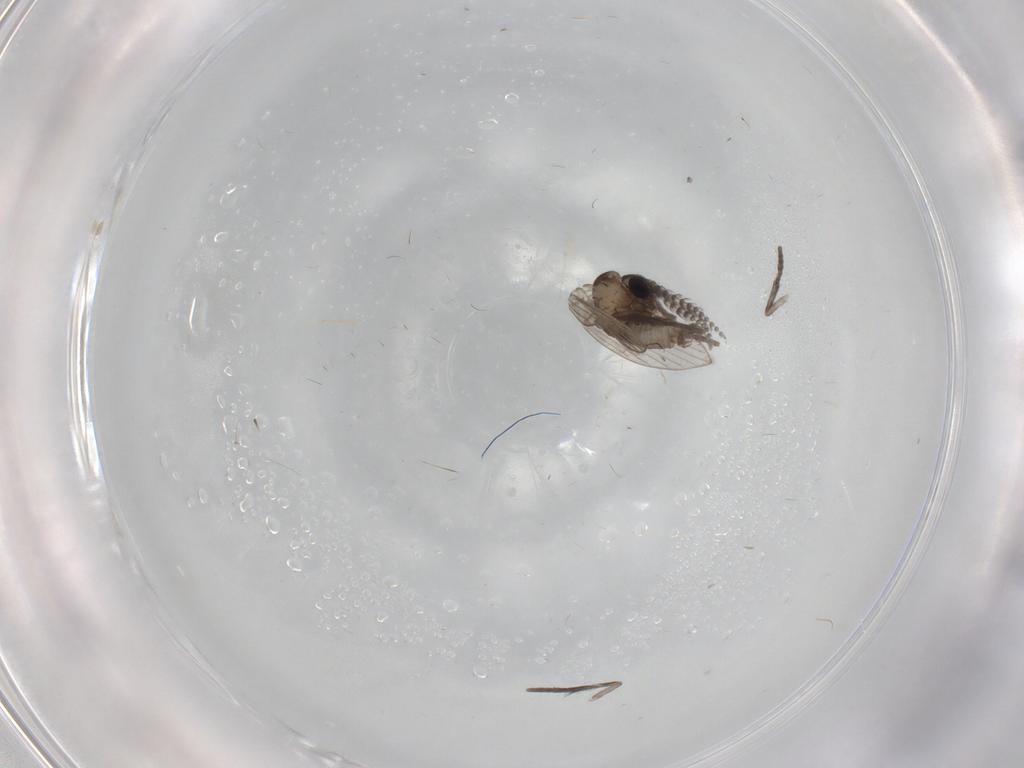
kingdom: Animalia
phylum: Arthropoda
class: Insecta
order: Diptera
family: Psychodidae
